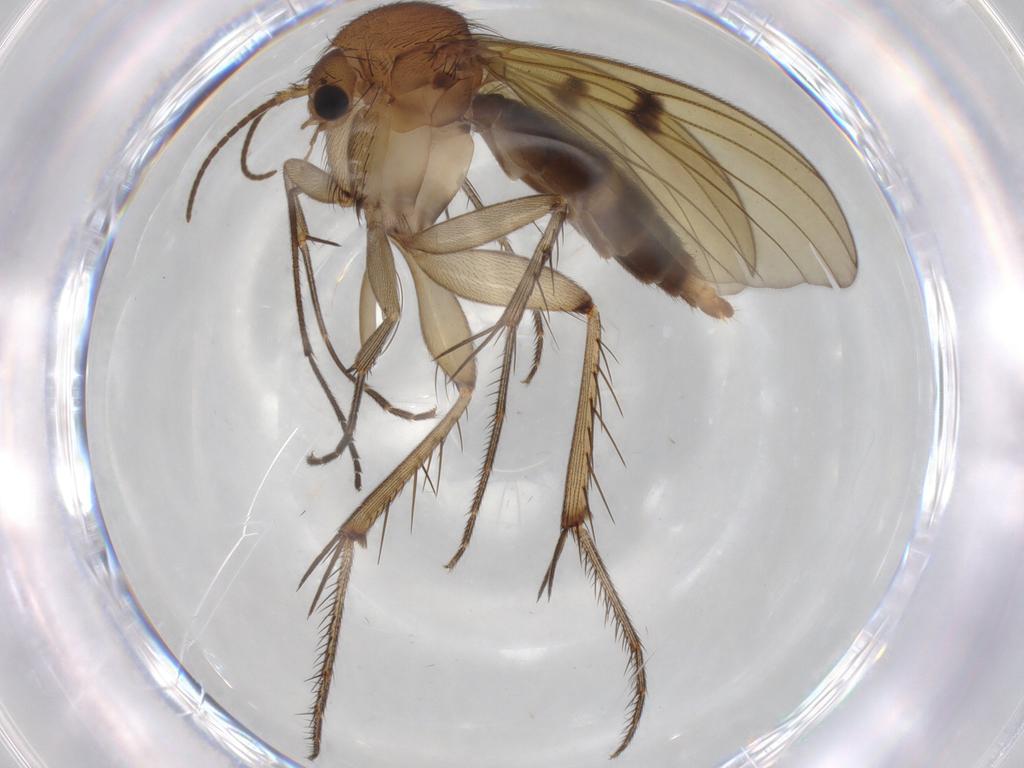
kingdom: Animalia
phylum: Arthropoda
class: Insecta
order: Diptera
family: Mycetophilidae
